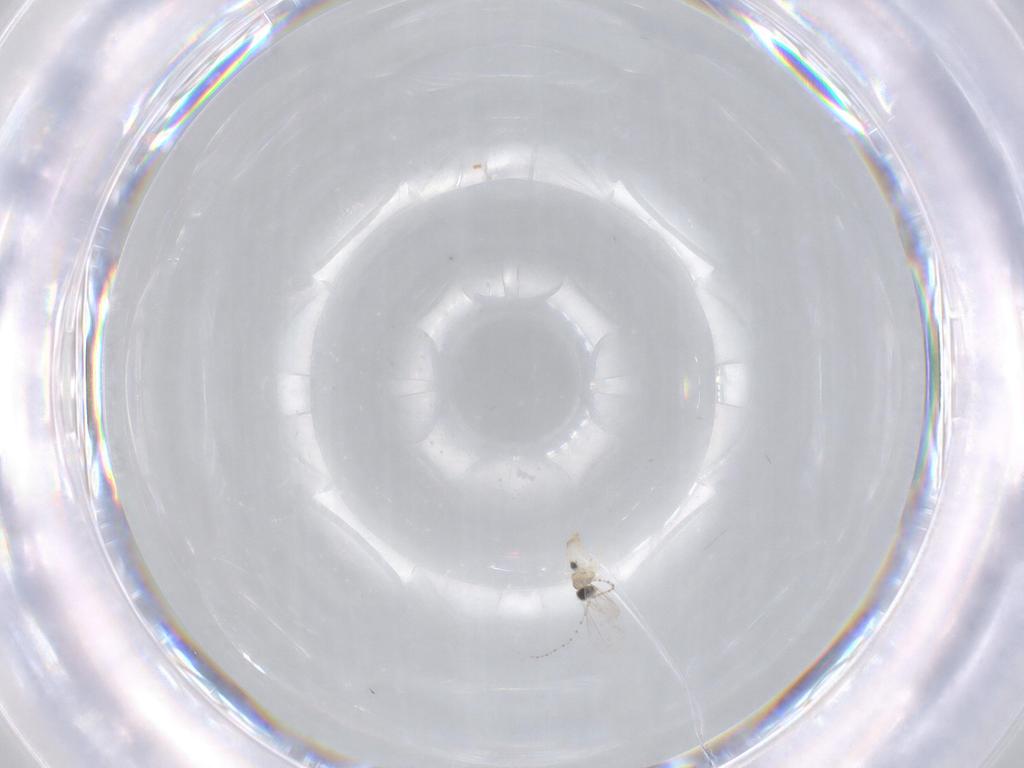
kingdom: Animalia
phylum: Arthropoda
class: Insecta
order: Diptera
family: Cecidomyiidae
